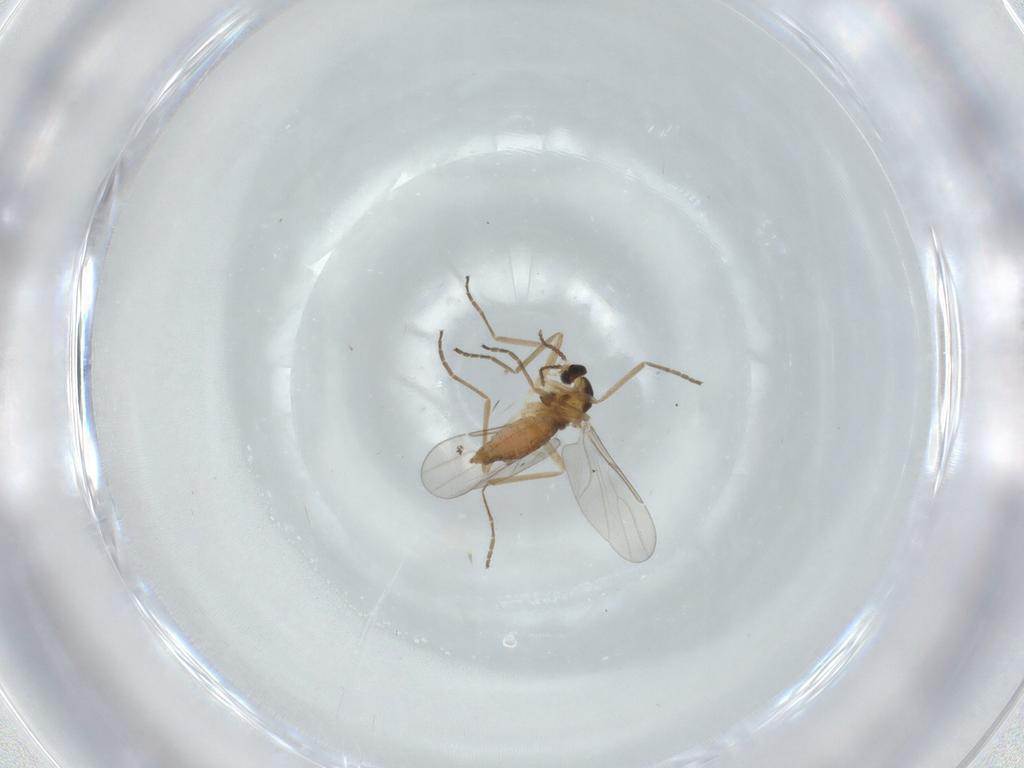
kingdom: Animalia
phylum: Arthropoda
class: Insecta
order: Diptera
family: Cecidomyiidae
